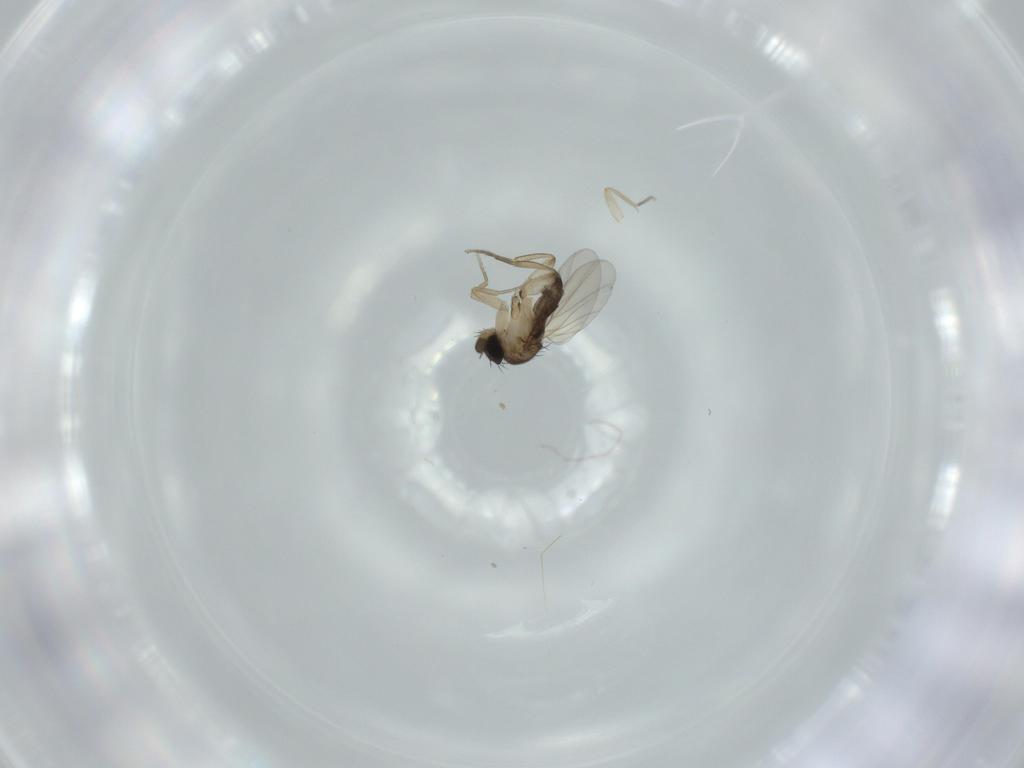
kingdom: Animalia
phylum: Arthropoda
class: Insecta
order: Diptera
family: Phoridae
